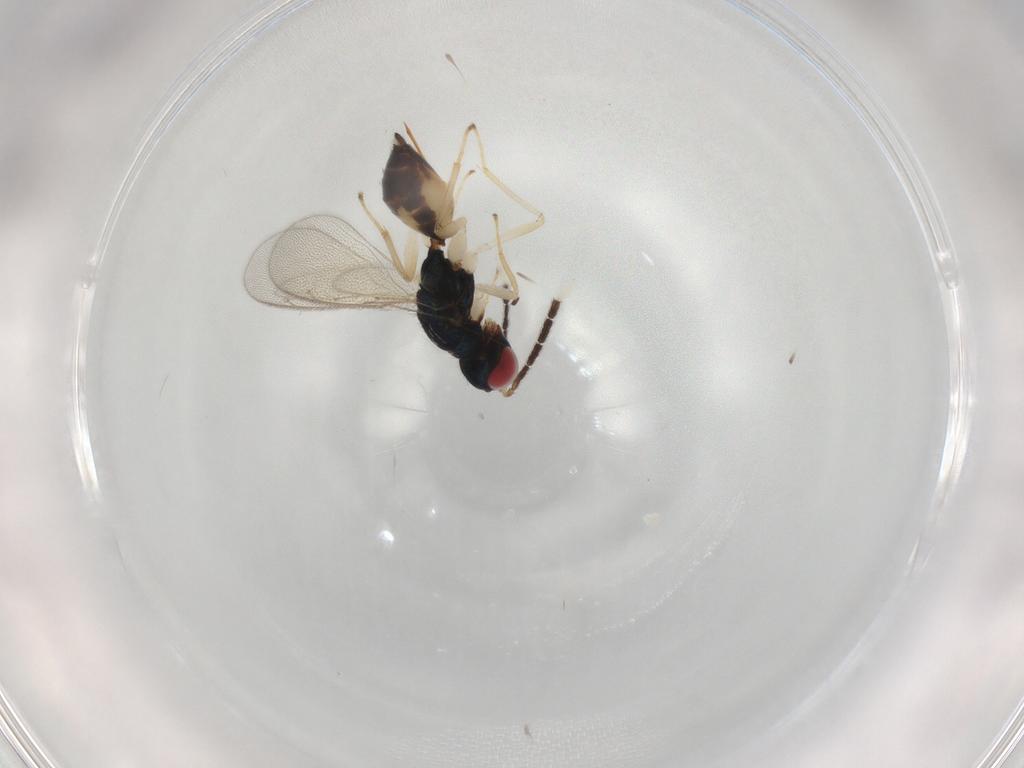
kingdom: Animalia
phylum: Arthropoda
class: Insecta
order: Hymenoptera
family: Eulophidae
